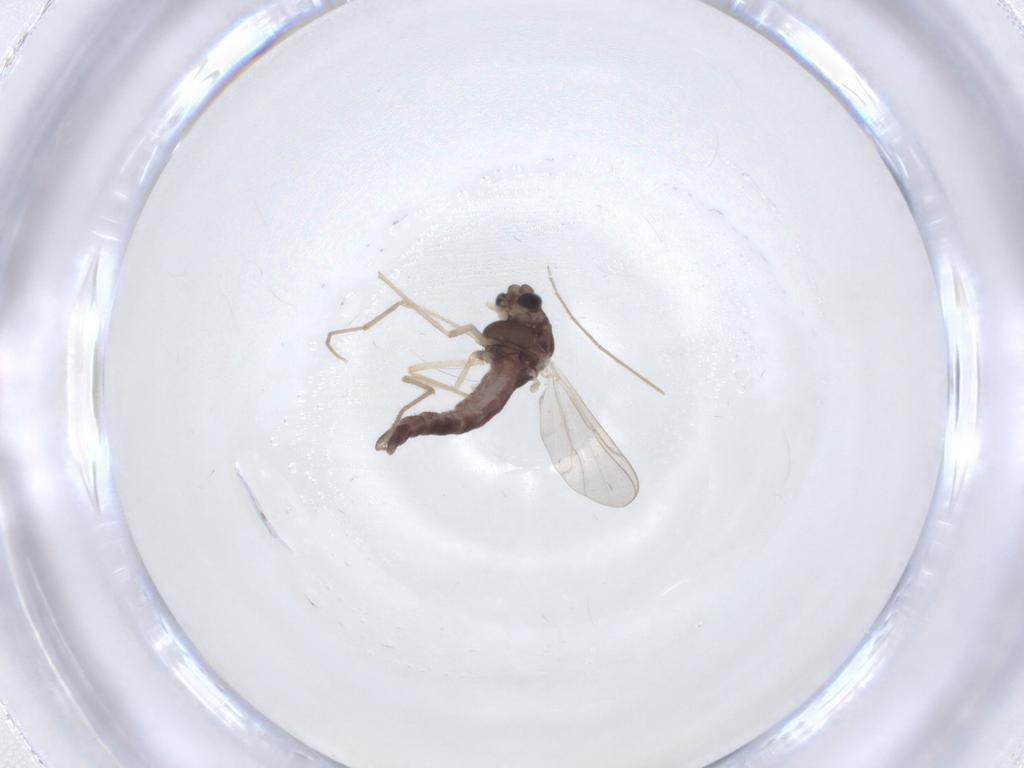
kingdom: Animalia
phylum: Arthropoda
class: Insecta
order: Diptera
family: Chironomidae
